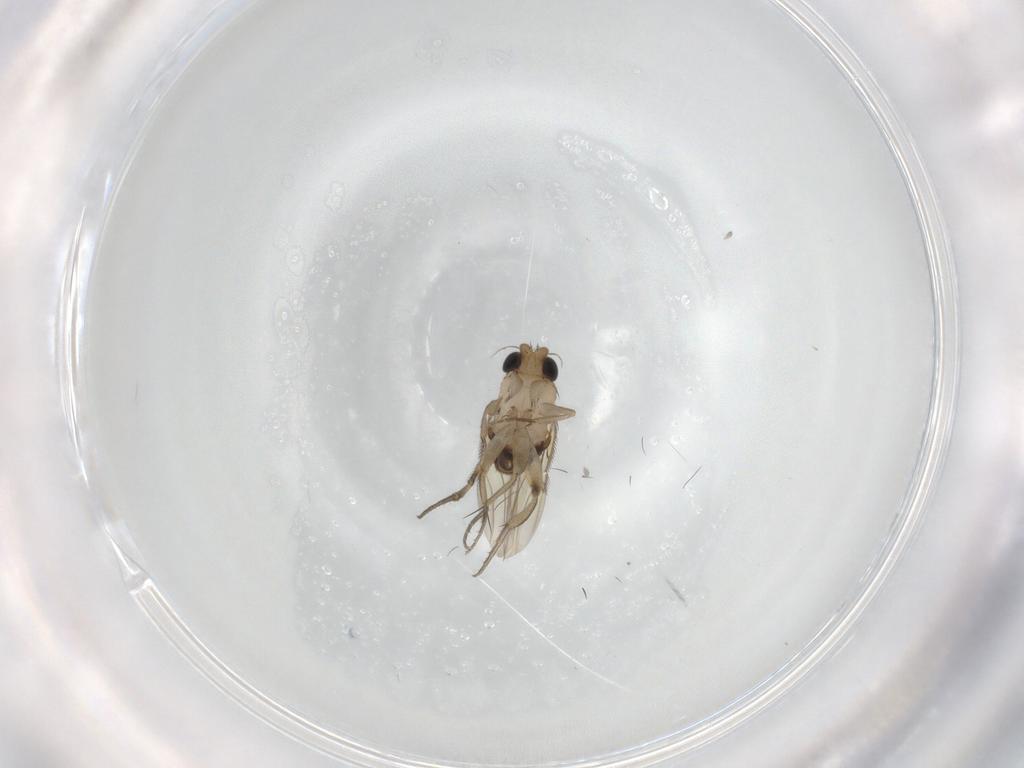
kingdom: Animalia
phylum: Arthropoda
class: Insecta
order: Diptera
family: Phoridae
